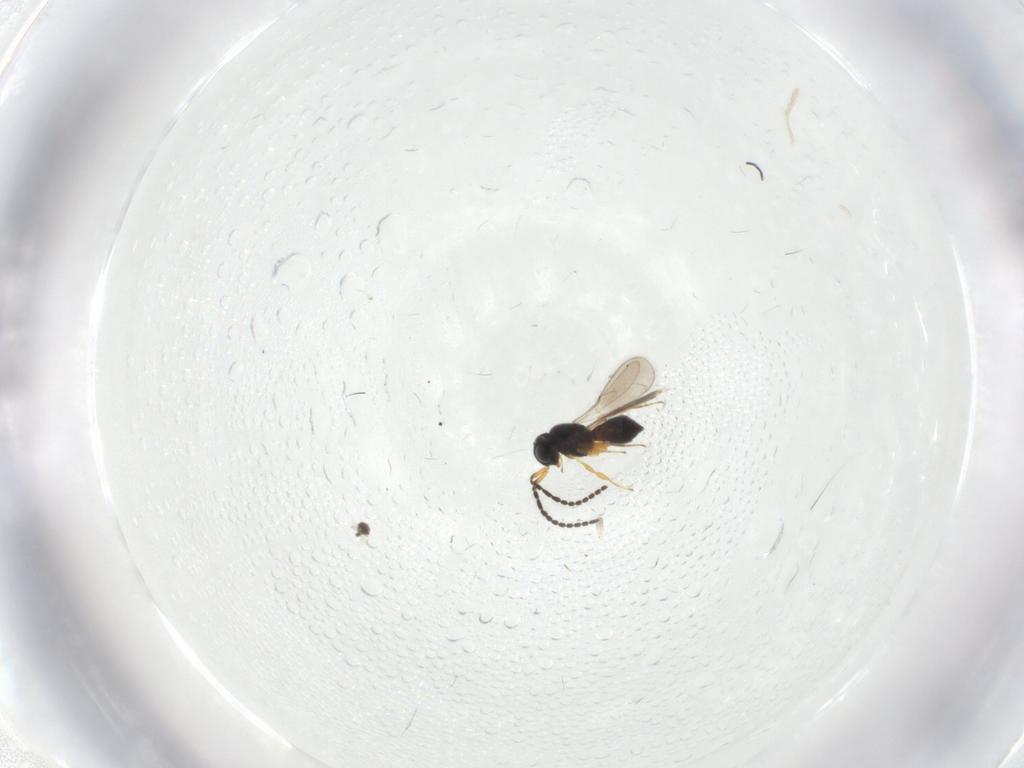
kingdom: Animalia
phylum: Arthropoda
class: Insecta
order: Hymenoptera
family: Scelionidae
